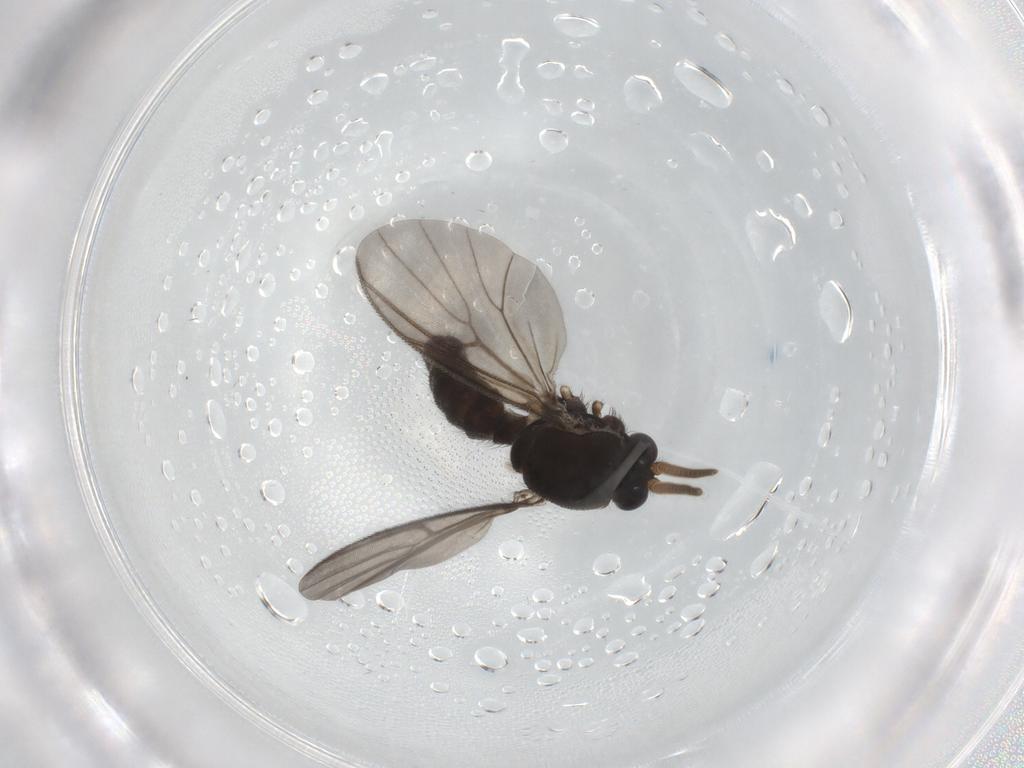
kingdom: Animalia
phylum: Arthropoda
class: Insecta
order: Diptera
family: Psychodidae
